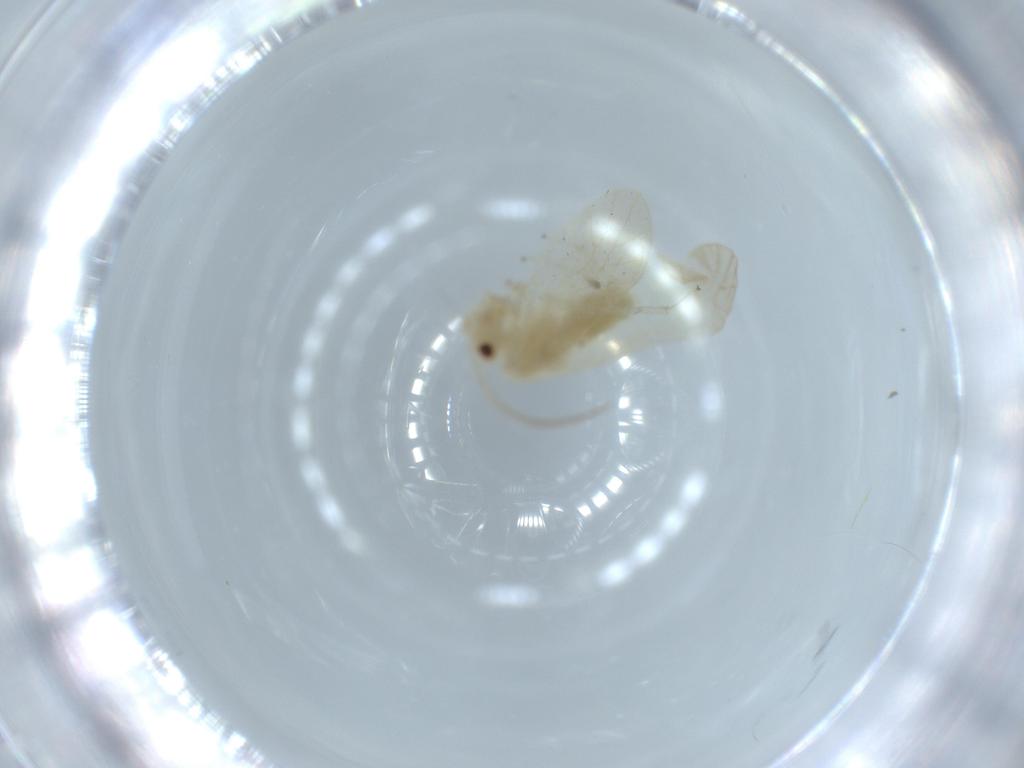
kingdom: Animalia
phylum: Arthropoda
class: Insecta
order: Psocodea
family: Caeciliusidae
